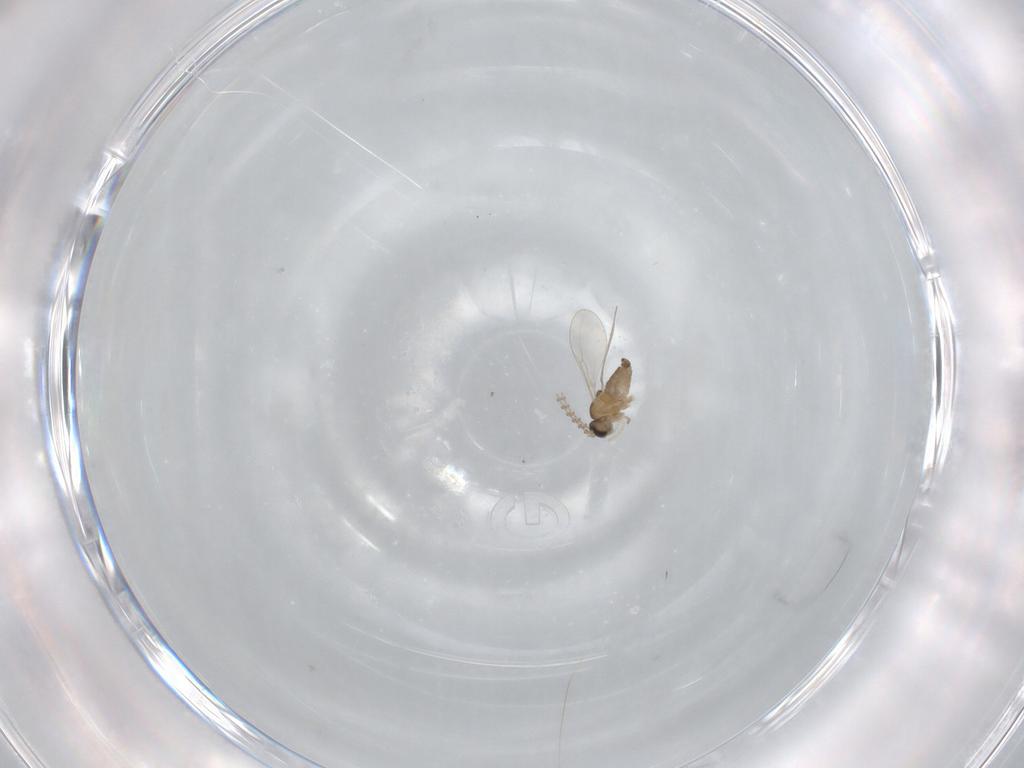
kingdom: Animalia
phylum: Arthropoda
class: Insecta
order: Diptera
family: Cecidomyiidae
